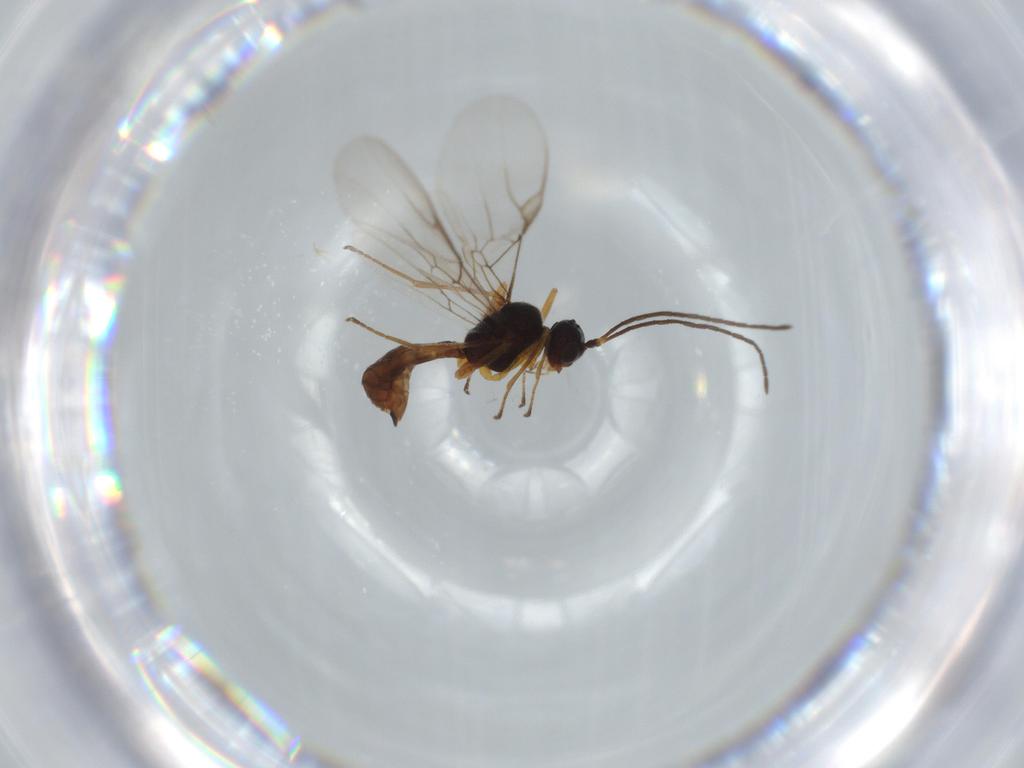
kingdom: Animalia
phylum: Arthropoda
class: Insecta
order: Hymenoptera
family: Braconidae
